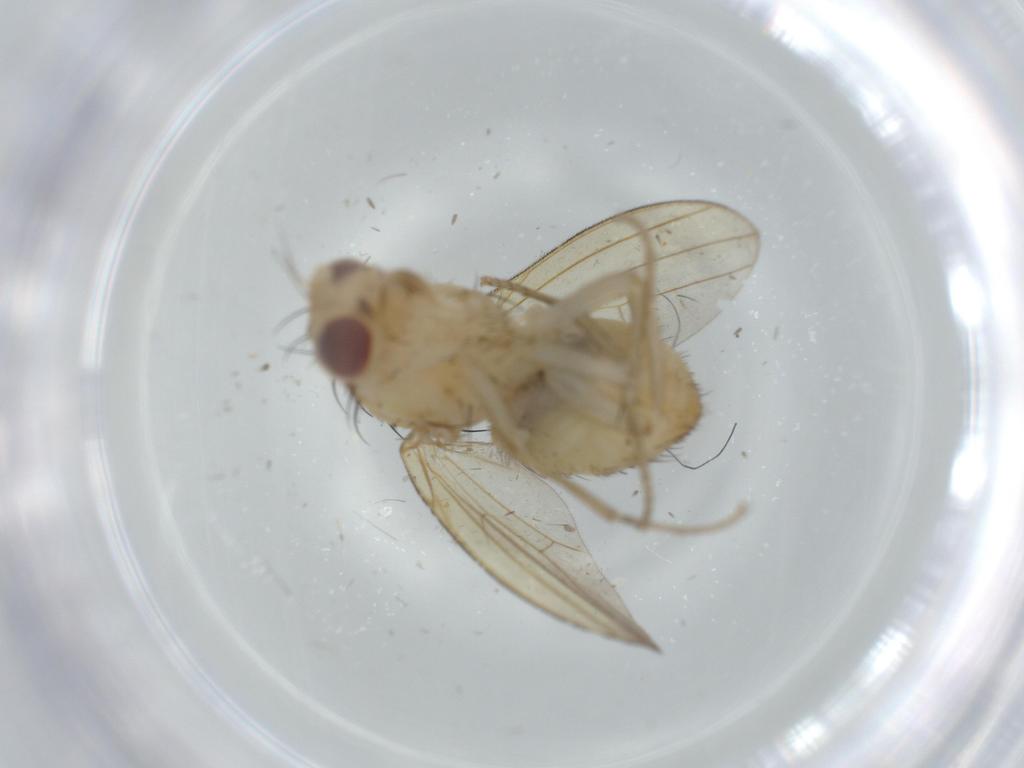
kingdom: Animalia
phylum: Arthropoda
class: Insecta
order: Diptera
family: Lauxaniidae
